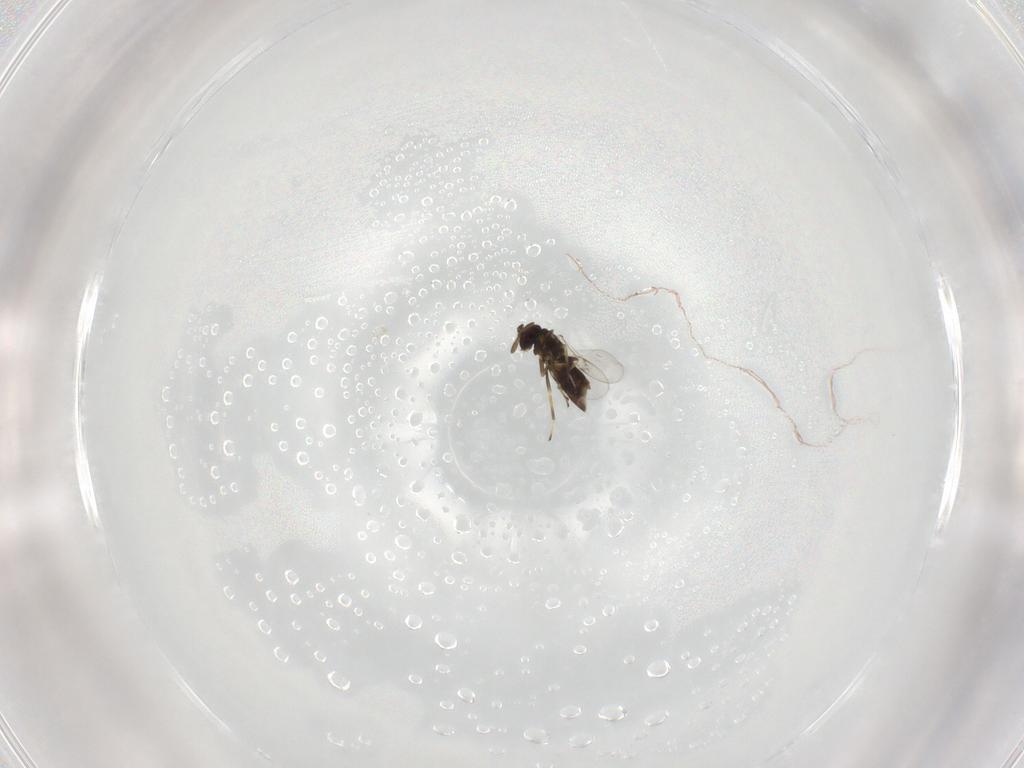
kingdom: Animalia
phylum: Arthropoda
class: Insecta
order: Hymenoptera
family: Encyrtidae
